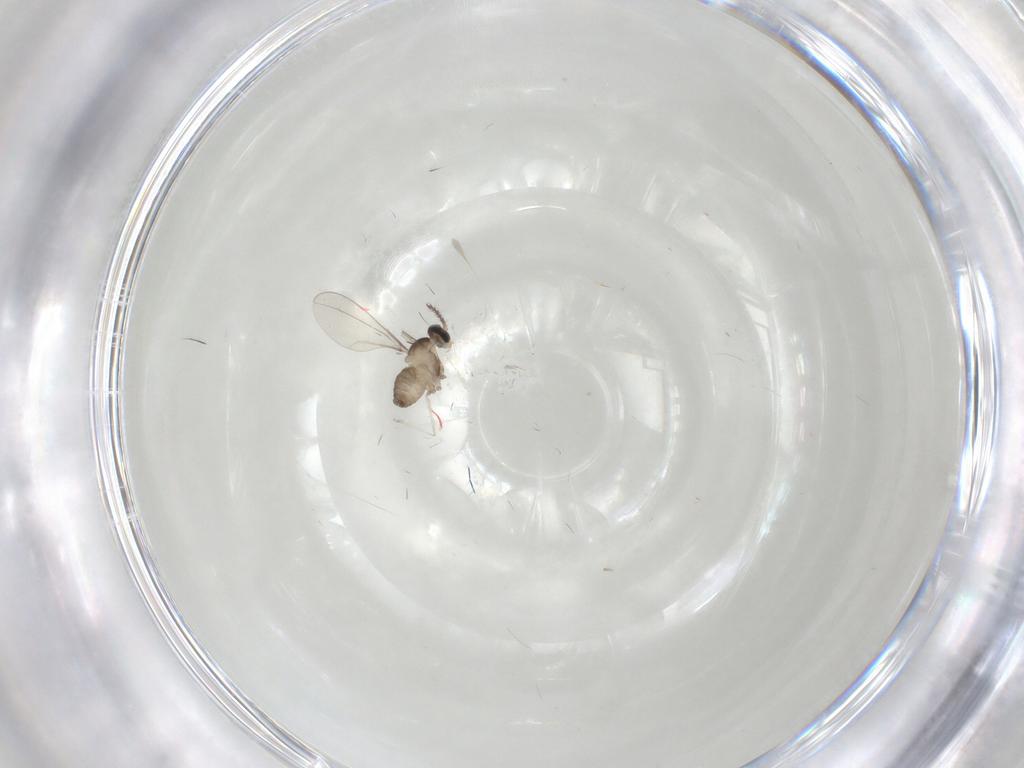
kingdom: Animalia
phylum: Arthropoda
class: Insecta
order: Diptera
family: Cecidomyiidae
